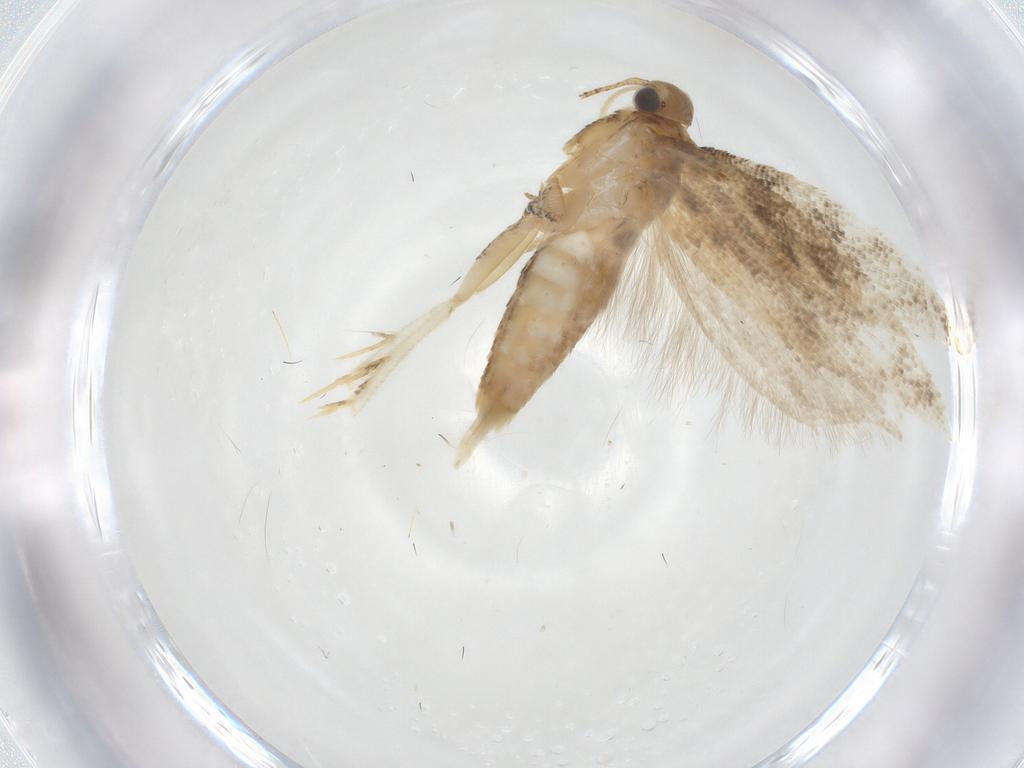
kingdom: Animalia
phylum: Arthropoda
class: Insecta
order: Lepidoptera
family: Gelechiidae
